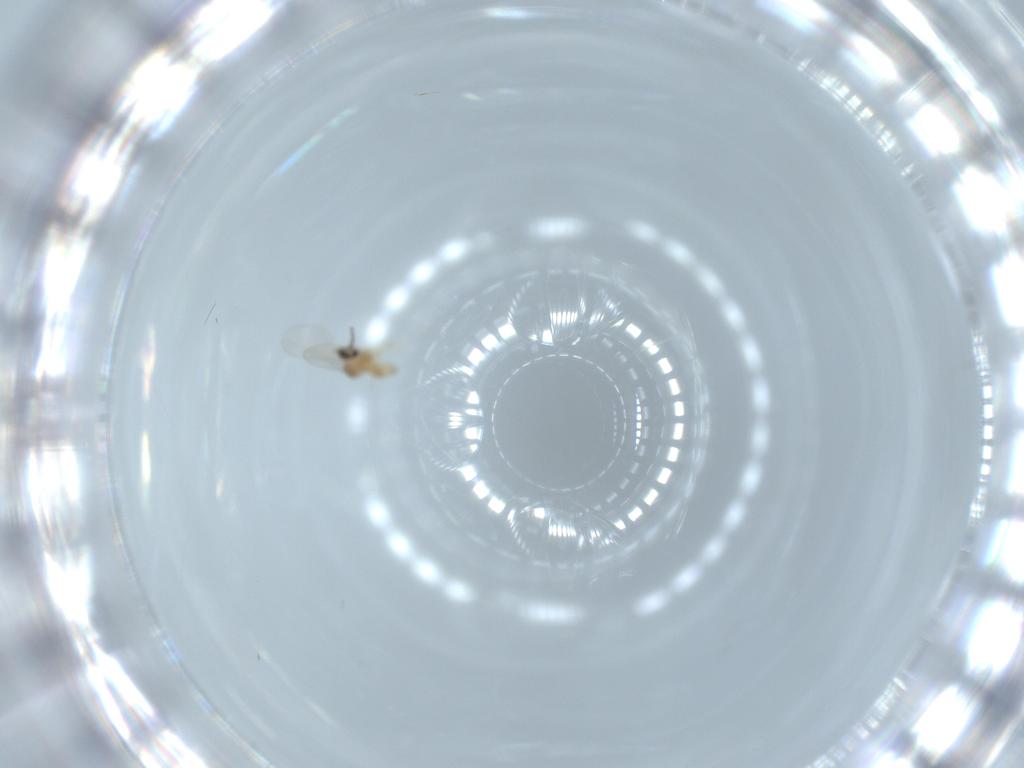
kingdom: Animalia
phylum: Arthropoda
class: Insecta
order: Diptera
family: Cecidomyiidae
